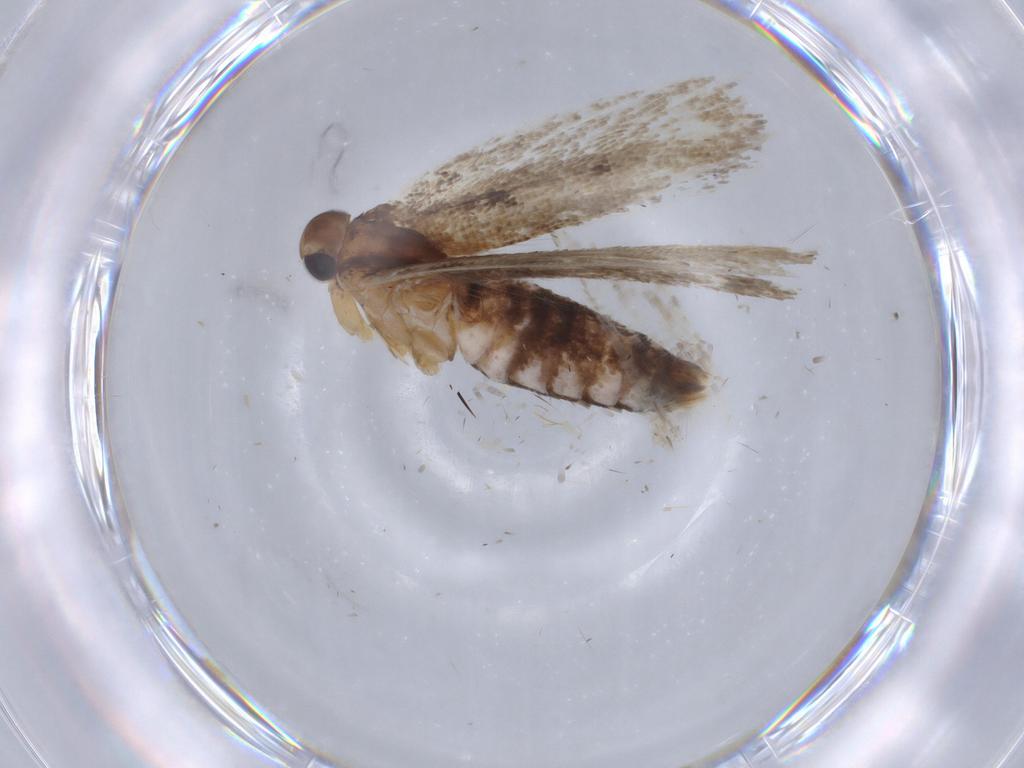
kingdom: Animalia
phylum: Arthropoda
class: Insecta
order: Lepidoptera
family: Gelechiidae
